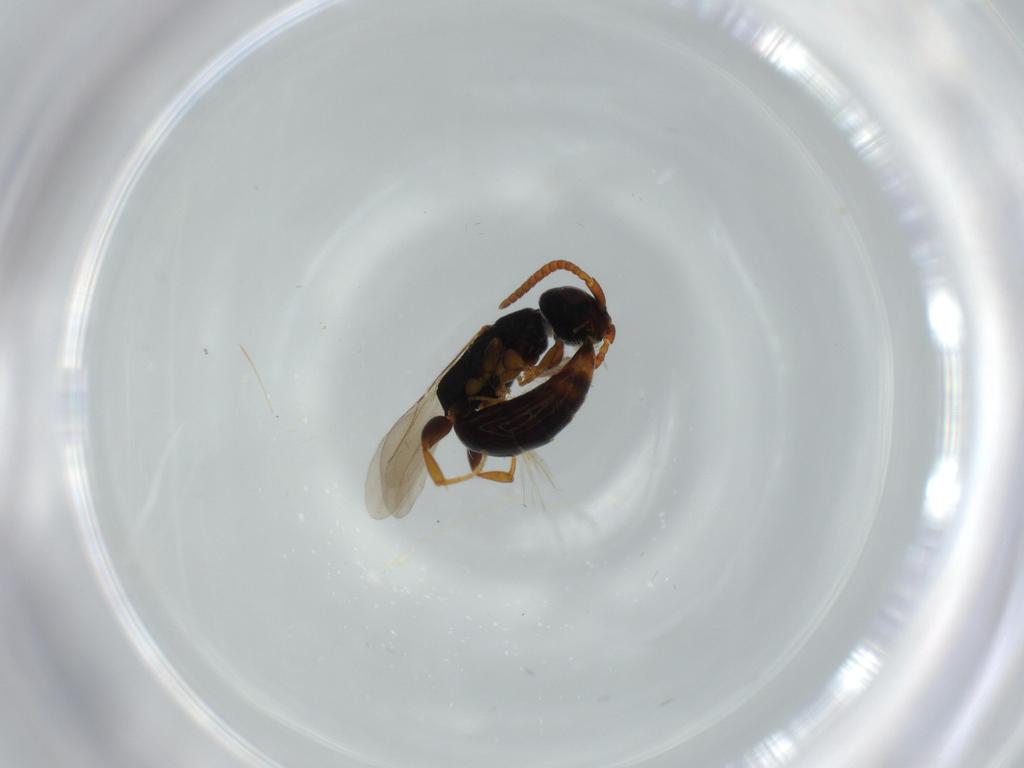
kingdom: Animalia
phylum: Arthropoda
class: Insecta
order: Hymenoptera
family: Bethylidae
